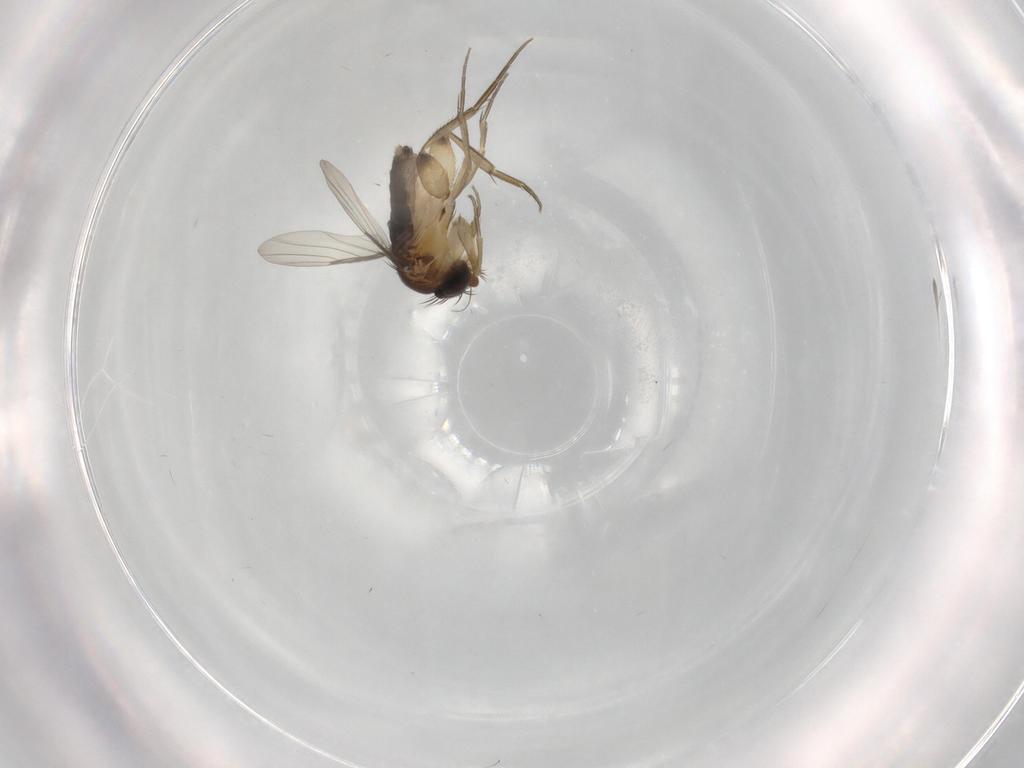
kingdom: Animalia
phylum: Arthropoda
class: Insecta
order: Diptera
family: Phoridae
